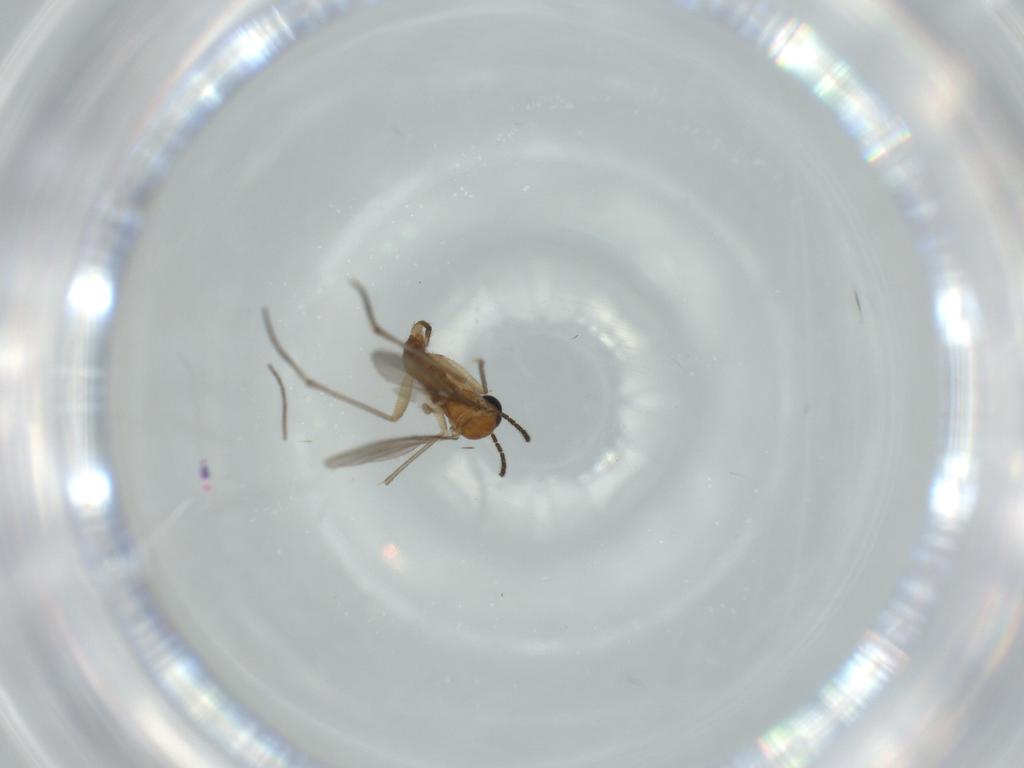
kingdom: Animalia
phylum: Arthropoda
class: Insecta
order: Diptera
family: Sciaridae
